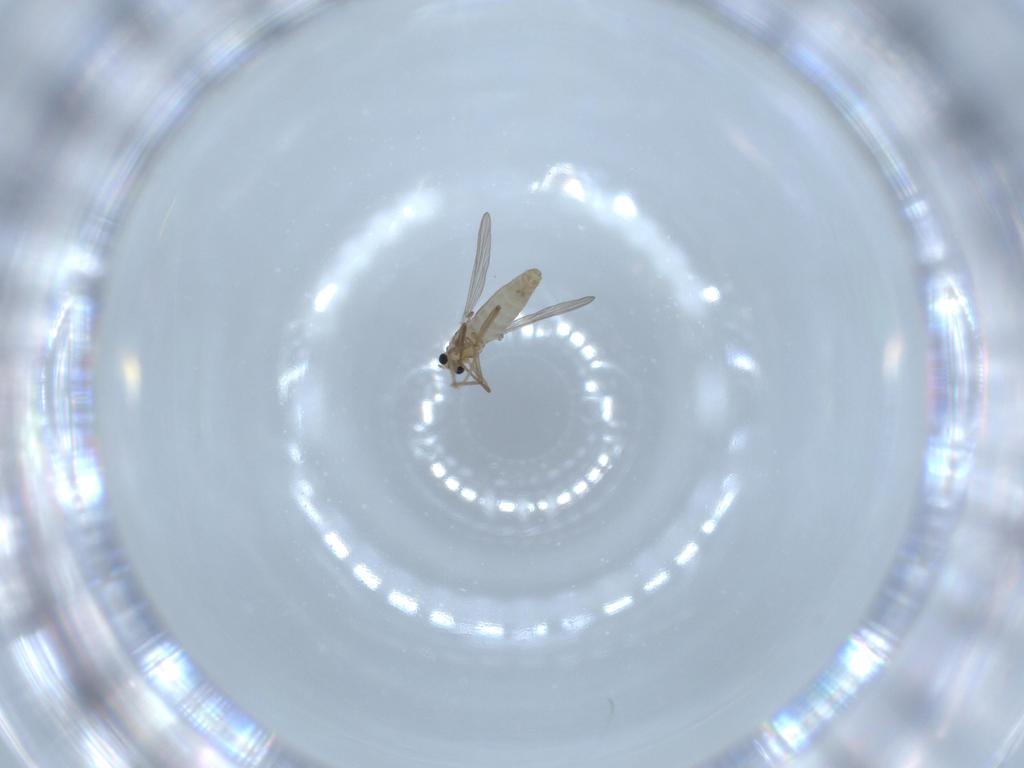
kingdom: Animalia
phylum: Arthropoda
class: Insecta
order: Diptera
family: Chironomidae
